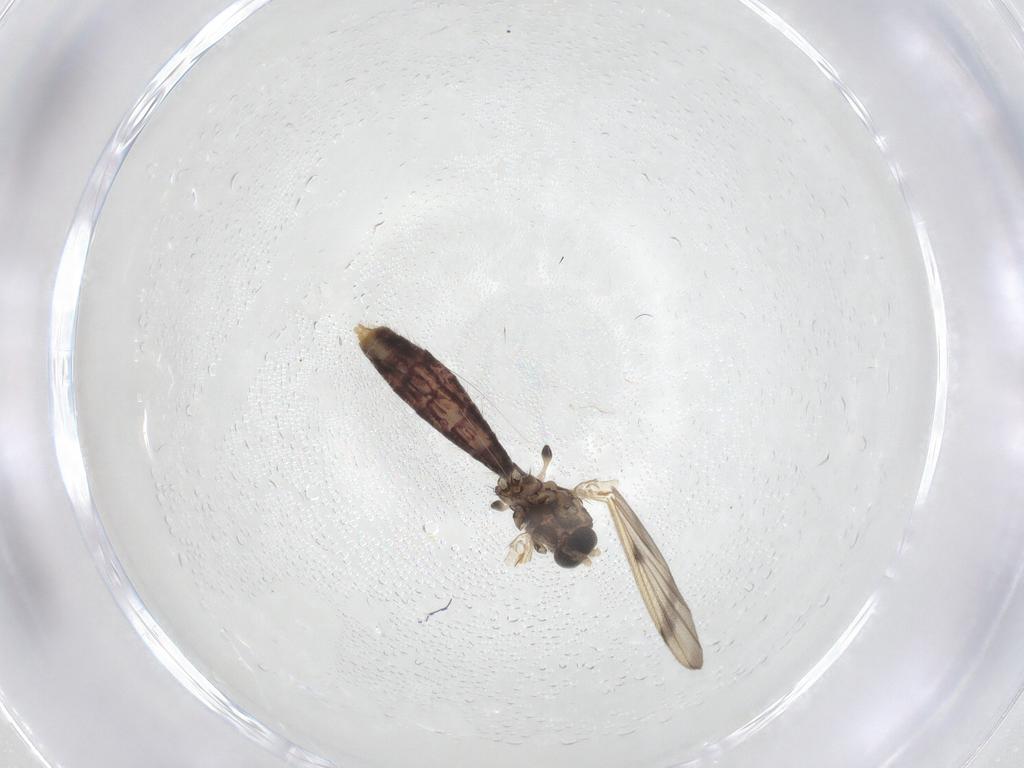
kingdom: Animalia
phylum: Arthropoda
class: Insecta
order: Diptera
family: Mycetophilidae
